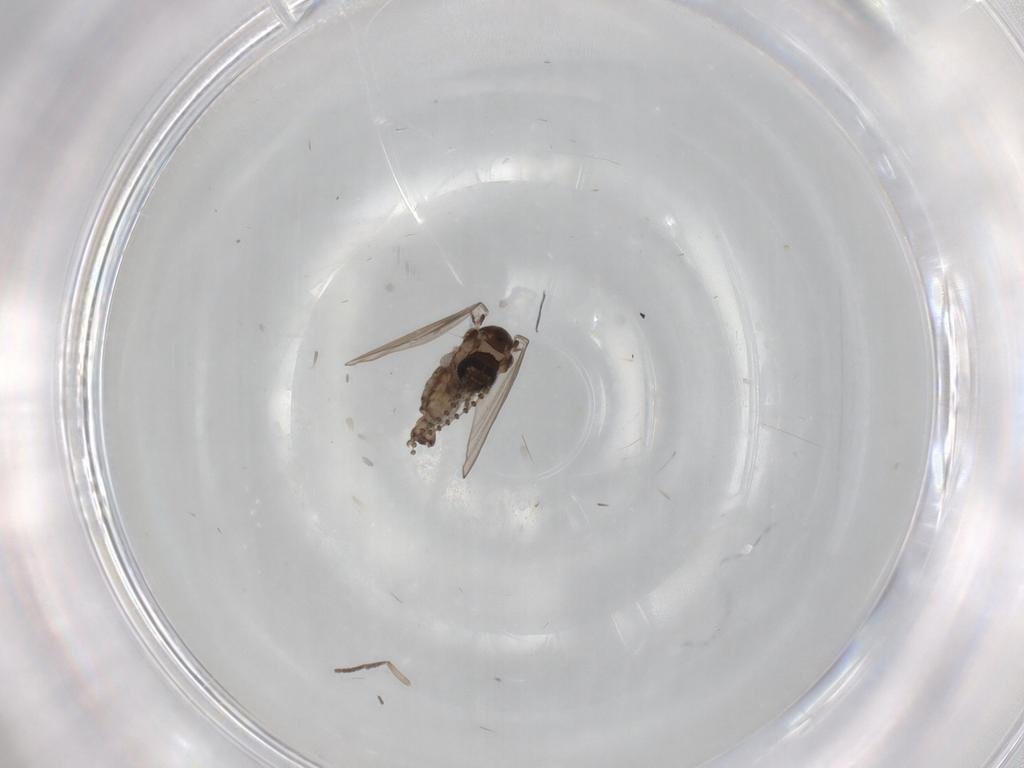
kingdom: Animalia
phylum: Arthropoda
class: Insecta
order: Diptera
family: Psychodidae
